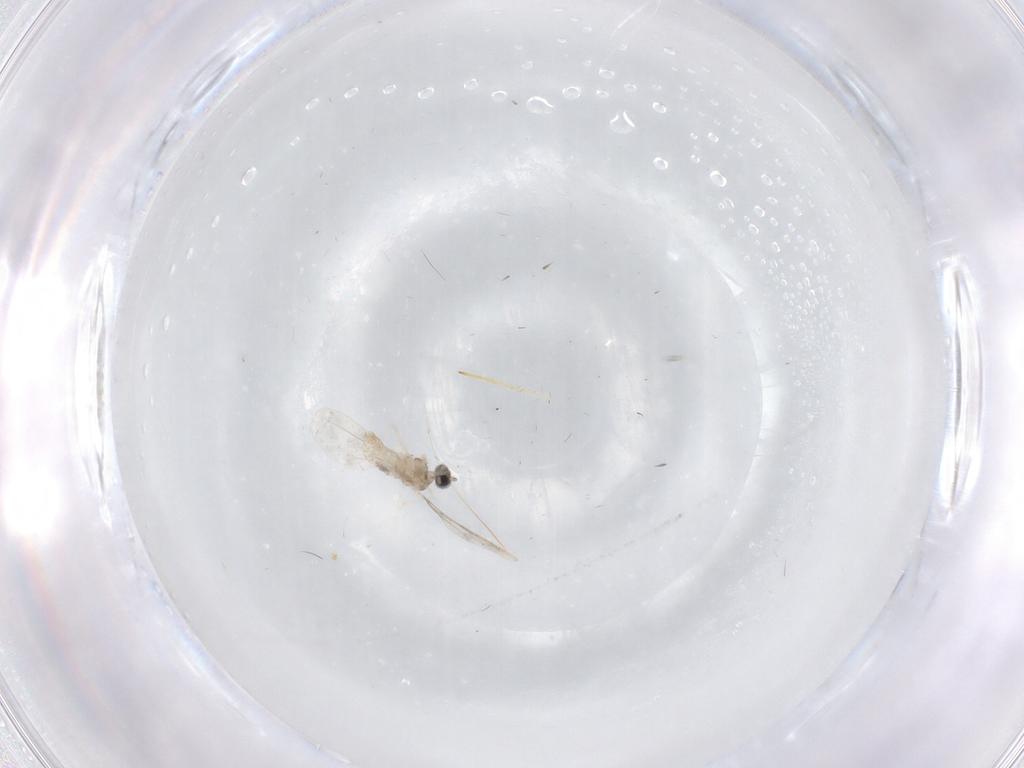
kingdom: Animalia
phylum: Arthropoda
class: Insecta
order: Diptera
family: Cecidomyiidae
